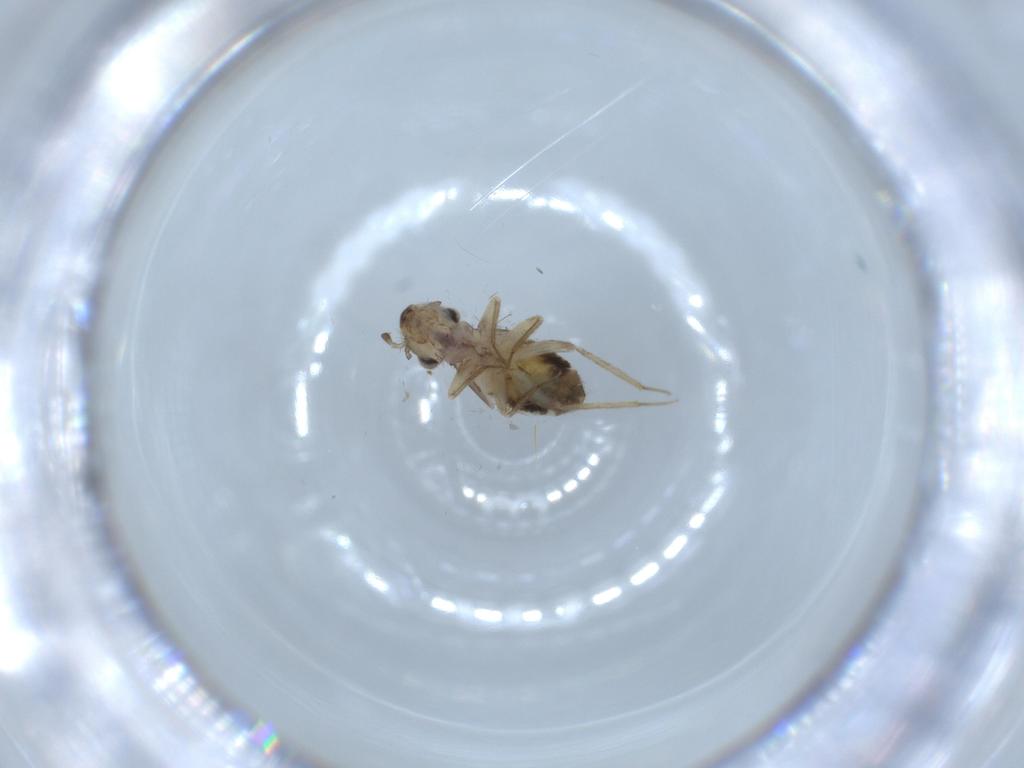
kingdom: Animalia
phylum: Arthropoda
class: Insecta
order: Psocodea
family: Lepidopsocidae
